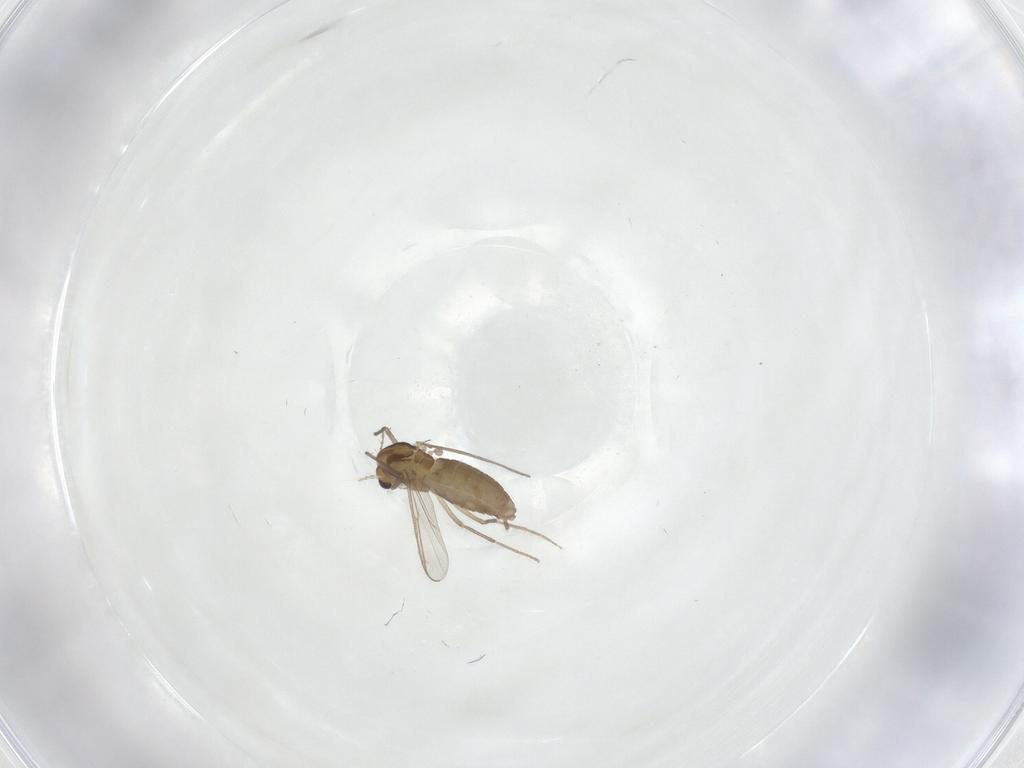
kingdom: Animalia
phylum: Arthropoda
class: Insecta
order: Diptera
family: Chironomidae
